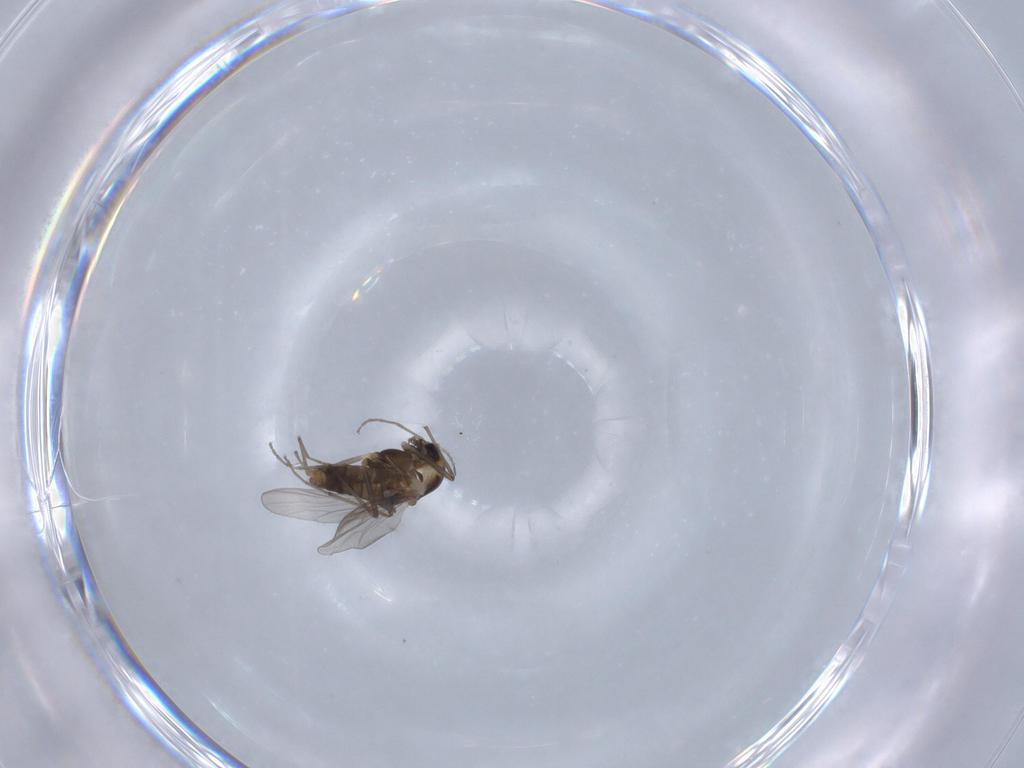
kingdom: Animalia
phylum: Arthropoda
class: Insecta
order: Diptera
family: Chironomidae
